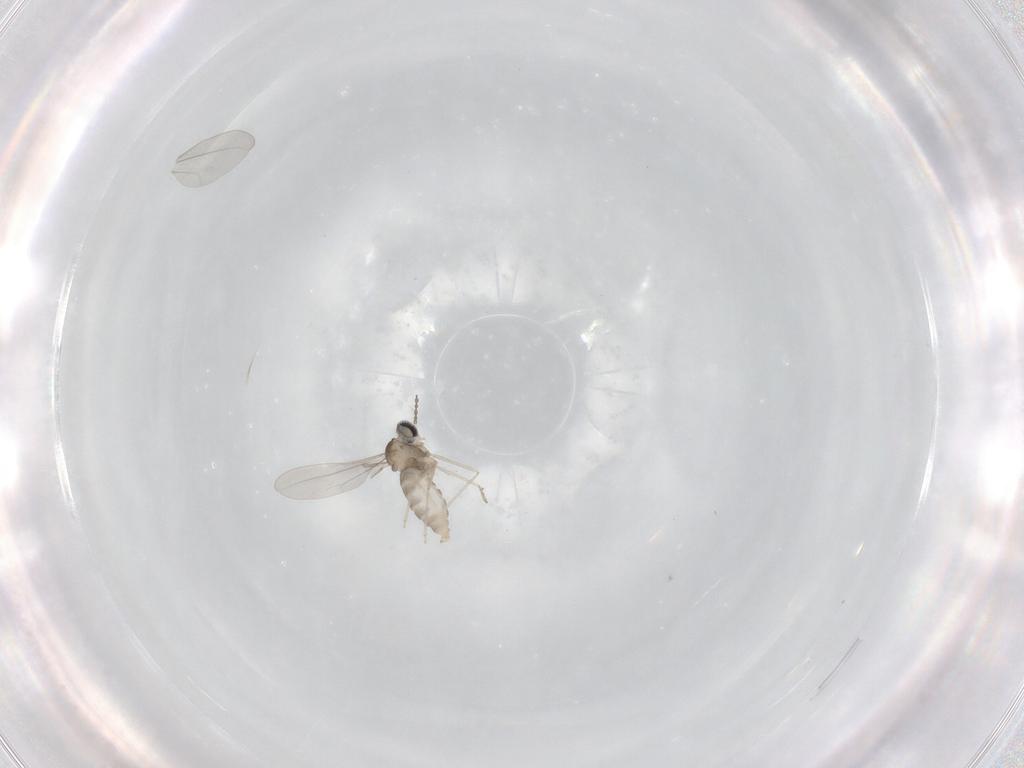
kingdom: Animalia
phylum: Arthropoda
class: Insecta
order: Diptera
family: Cecidomyiidae
